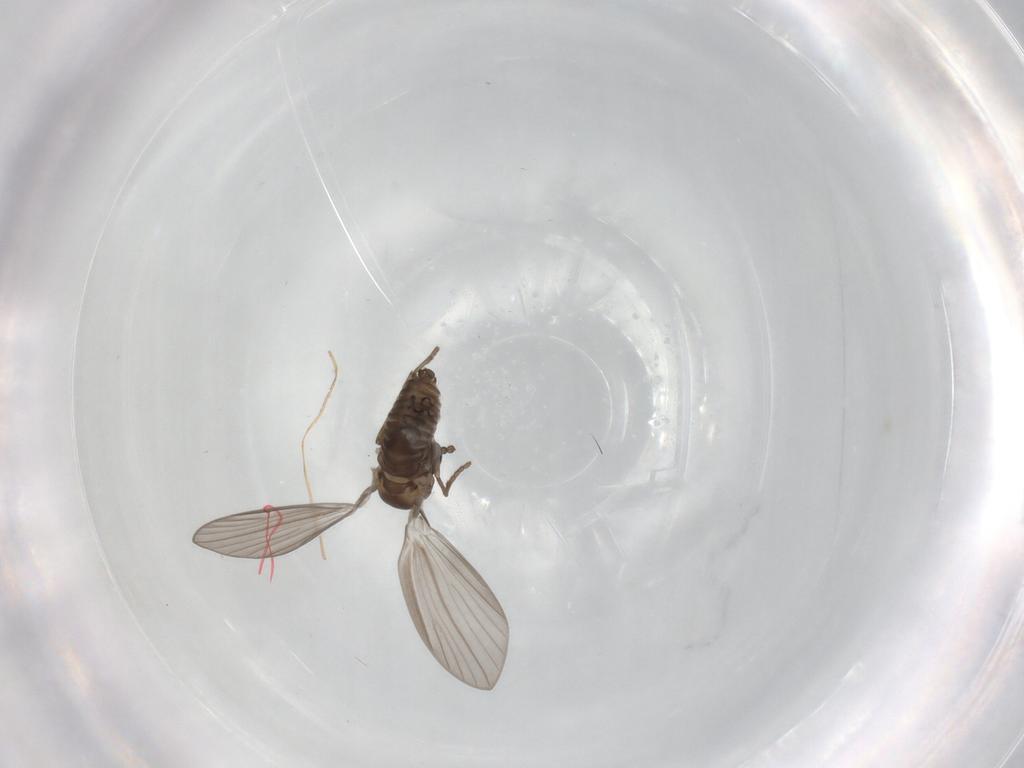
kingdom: Animalia
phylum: Arthropoda
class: Insecta
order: Diptera
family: Psychodidae
